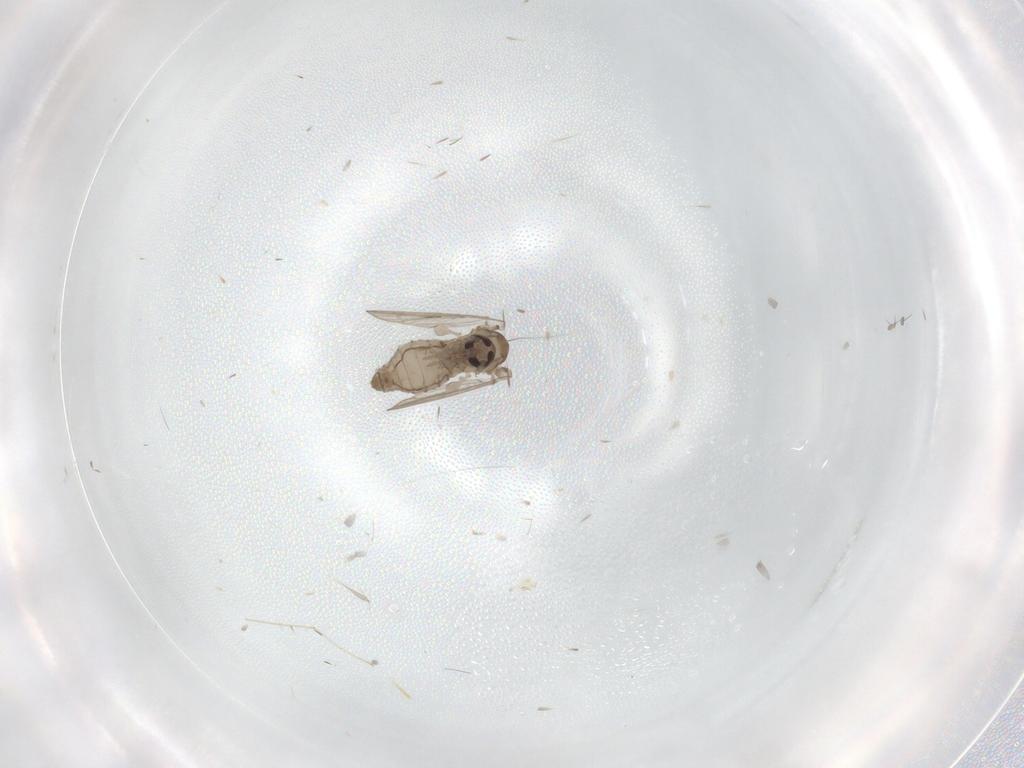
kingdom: Animalia
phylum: Arthropoda
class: Insecta
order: Diptera
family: Psychodidae
